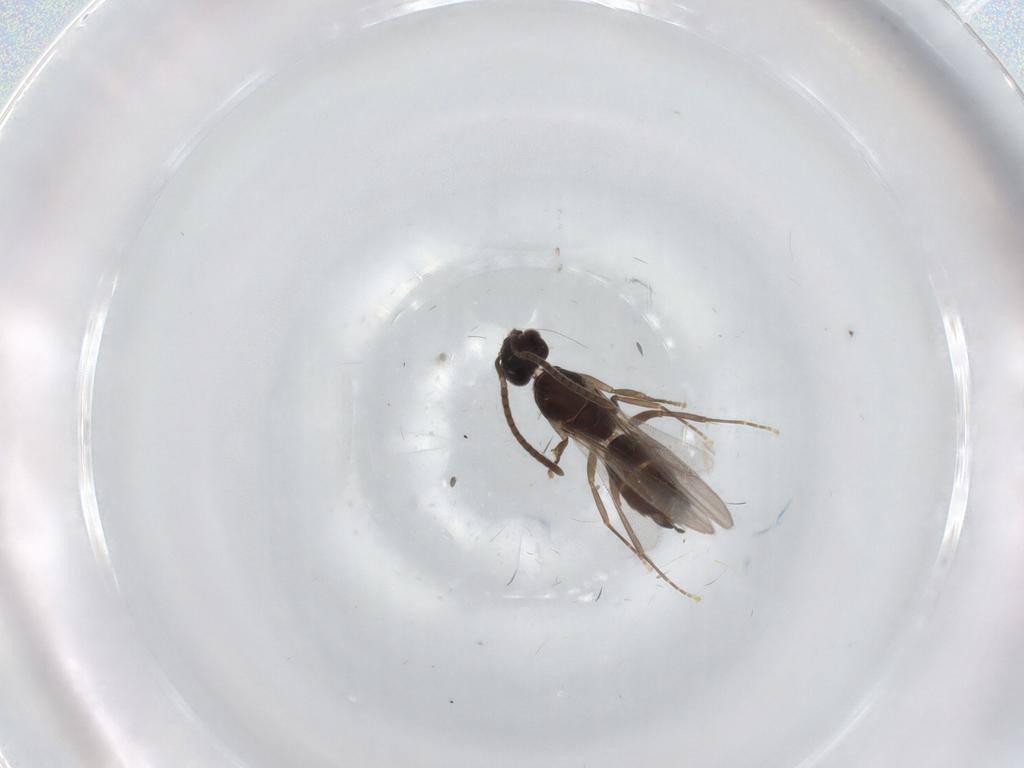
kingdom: Animalia
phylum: Arthropoda
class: Insecta
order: Hymenoptera
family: Formicidae
